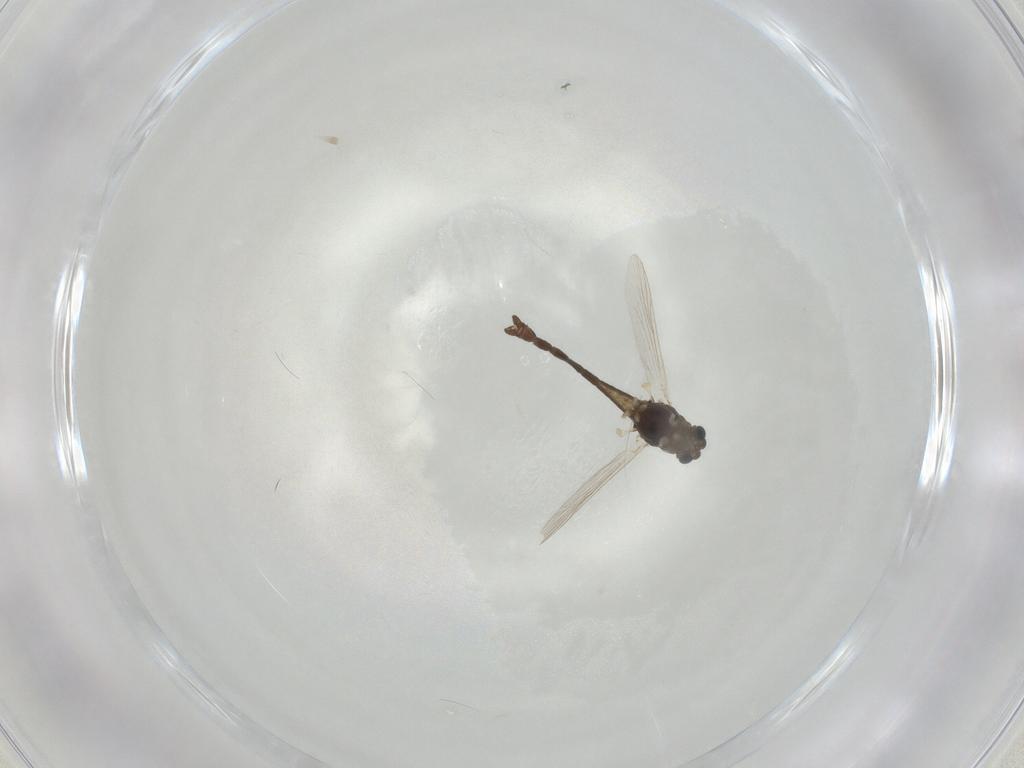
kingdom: Animalia
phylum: Arthropoda
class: Insecta
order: Diptera
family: Chironomidae
